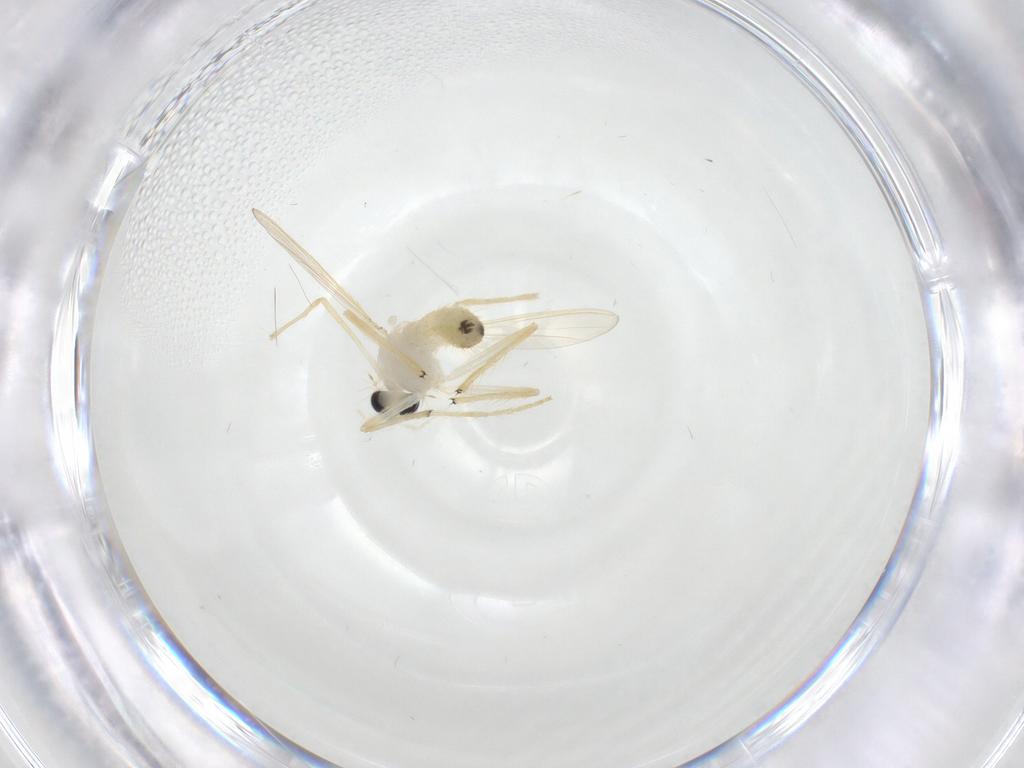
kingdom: Animalia
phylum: Arthropoda
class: Insecta
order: Diptera
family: Chironomidae
